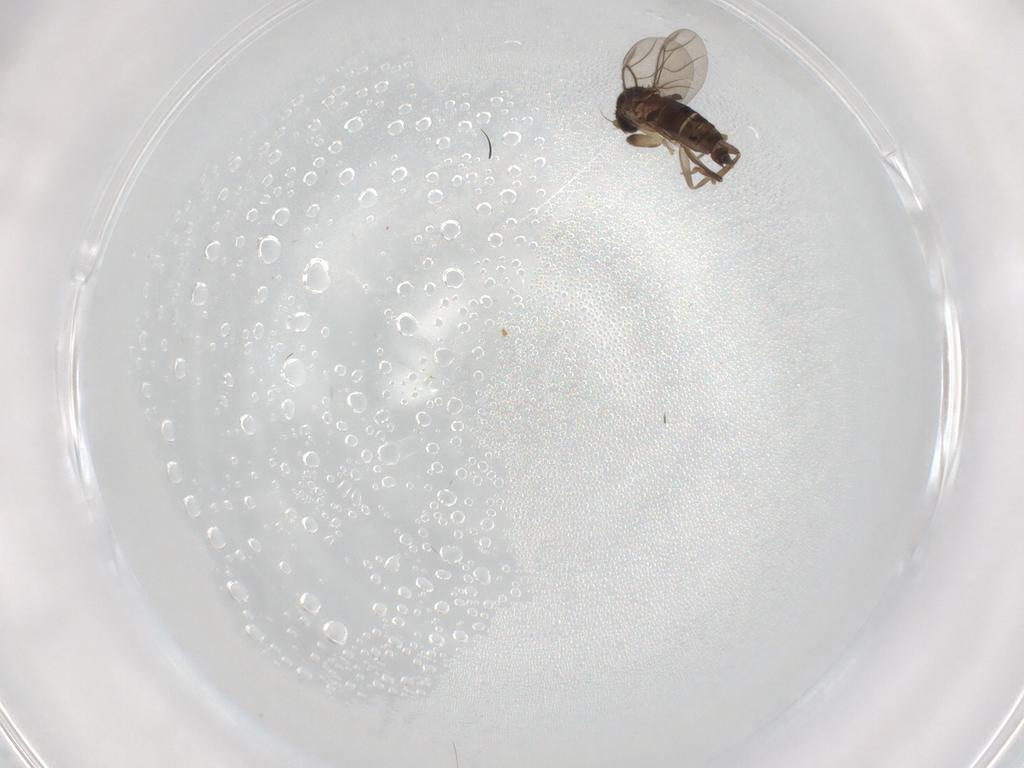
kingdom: Animalia
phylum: Arthropoda
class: Insecta
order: Diptera
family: Phoridae
